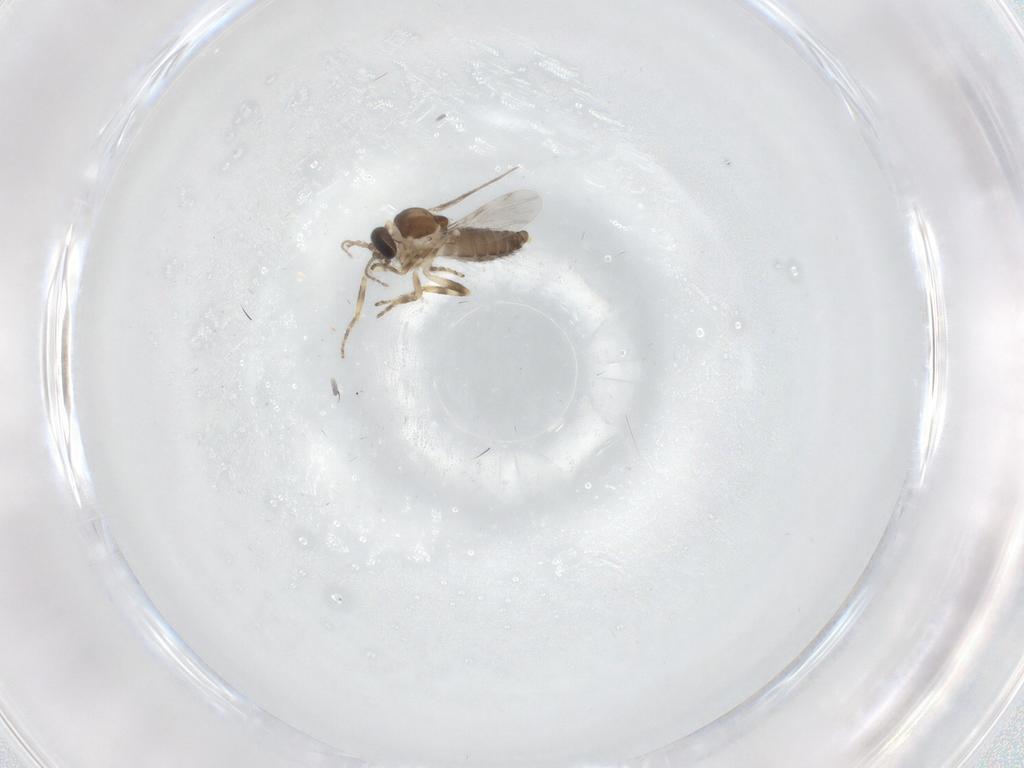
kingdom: Animalia
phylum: Arthropoda
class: Insecta
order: Diptera
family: Ceratopogonidae
